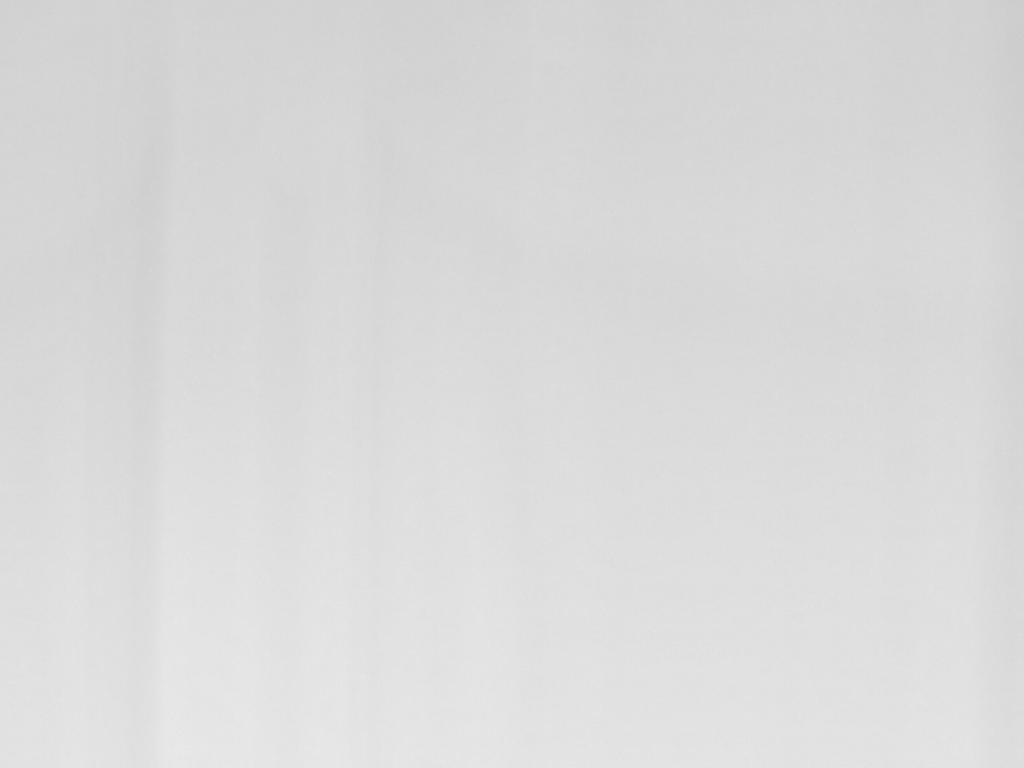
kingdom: Animalia
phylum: Arthropoda
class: Insecta
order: Hymenoptera
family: Aphelinidae
